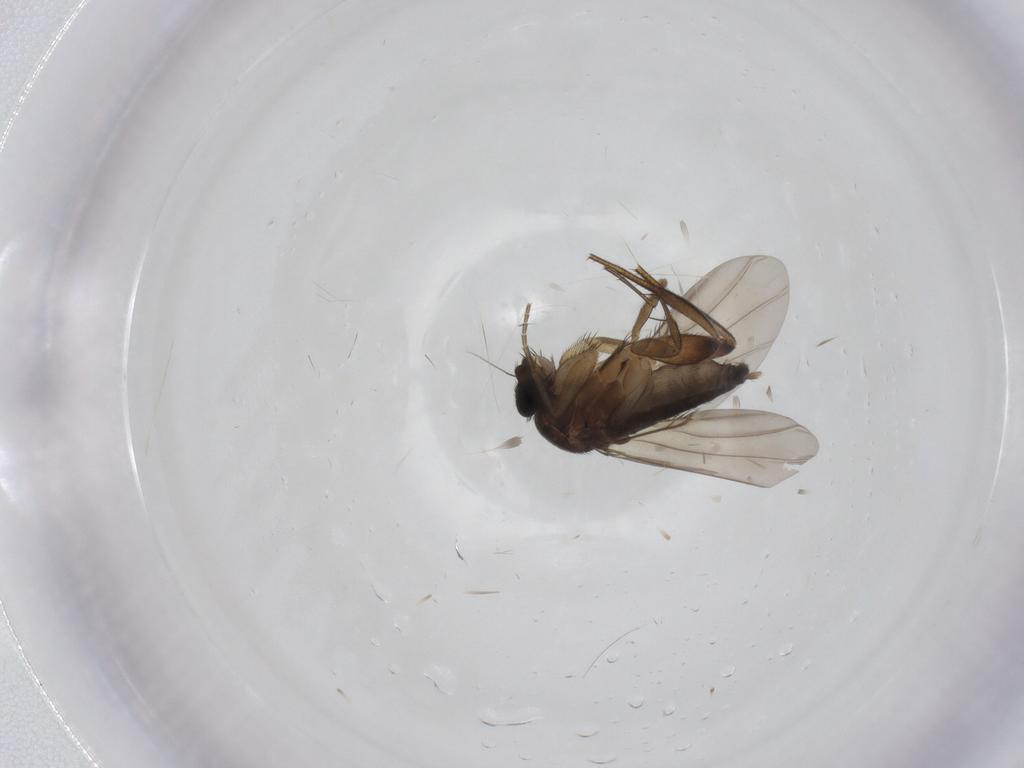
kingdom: Animalia
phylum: Arthropoda
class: Insecta
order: Diptera
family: Phoridae
